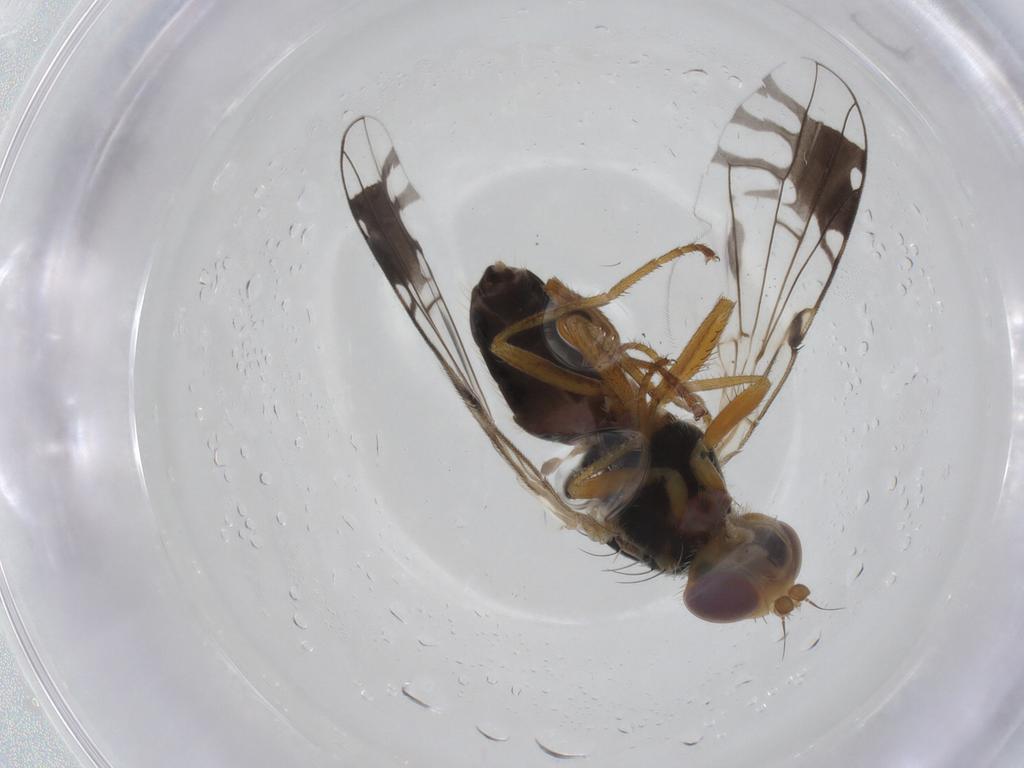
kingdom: Animalia
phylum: Arthropoda
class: Insecta
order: Diptera
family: Tephritidae
